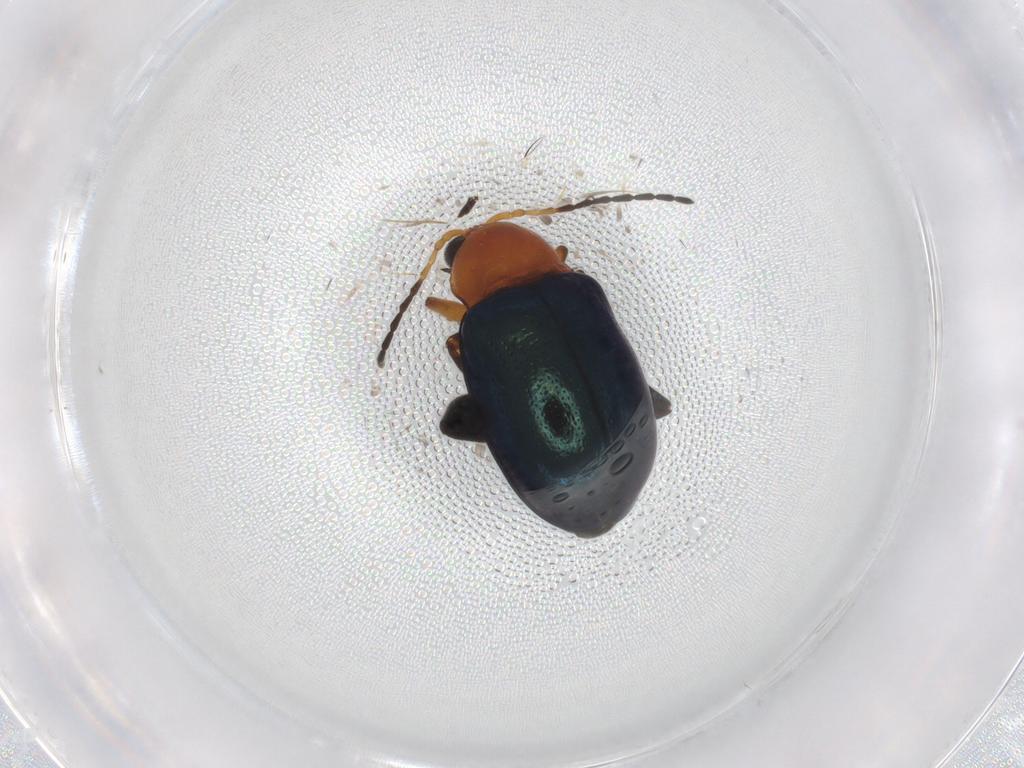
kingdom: Animalia
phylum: Arthropoda
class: Insecta
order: Coleoptera
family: Chrysomelidae
